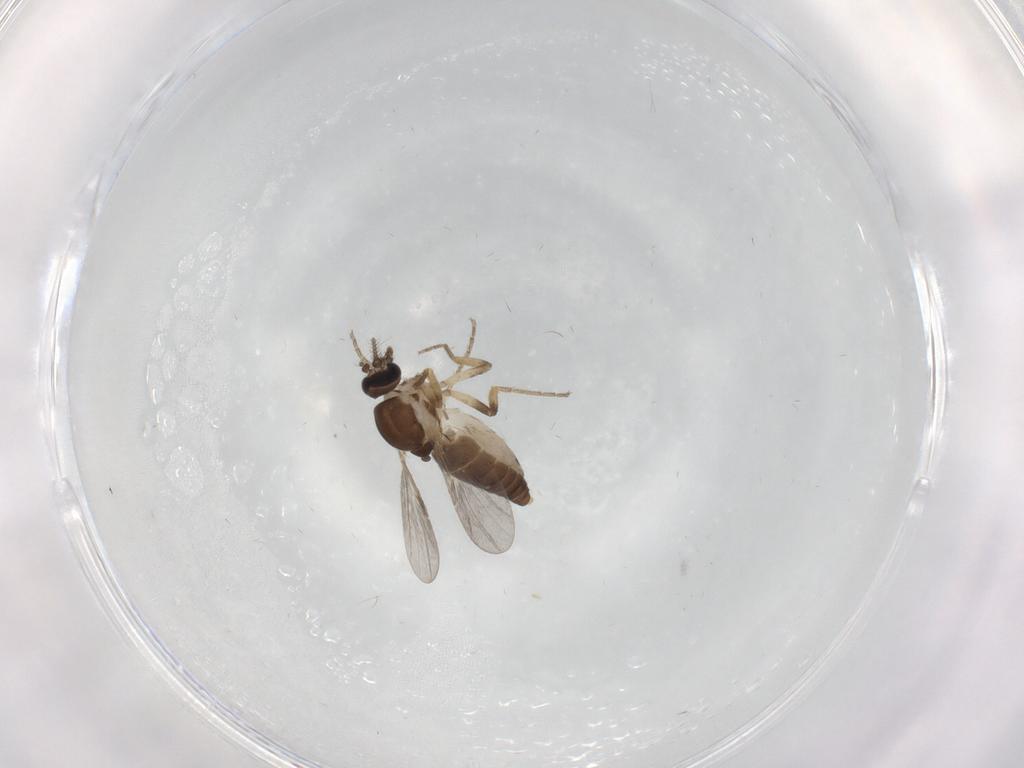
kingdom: Animalia
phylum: Arthropoda
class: Insecta
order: Diptera
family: Ceratopogonidae
